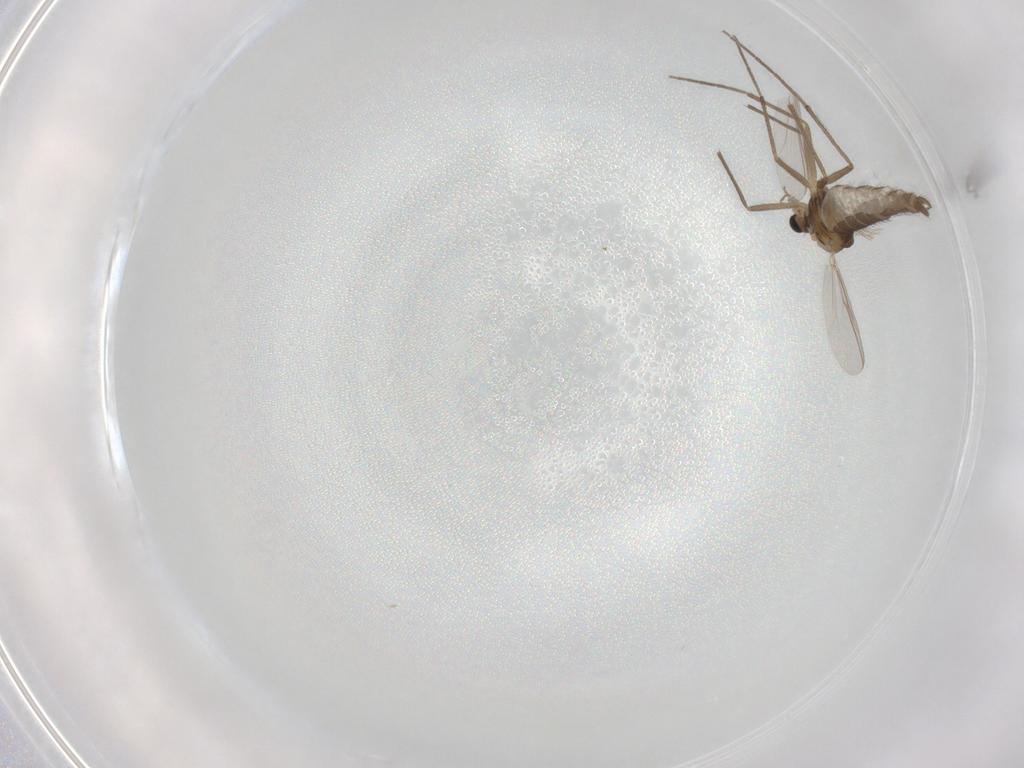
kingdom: Animalia
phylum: Arthropoda
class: Insecta
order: Diptera
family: Chironomidae
